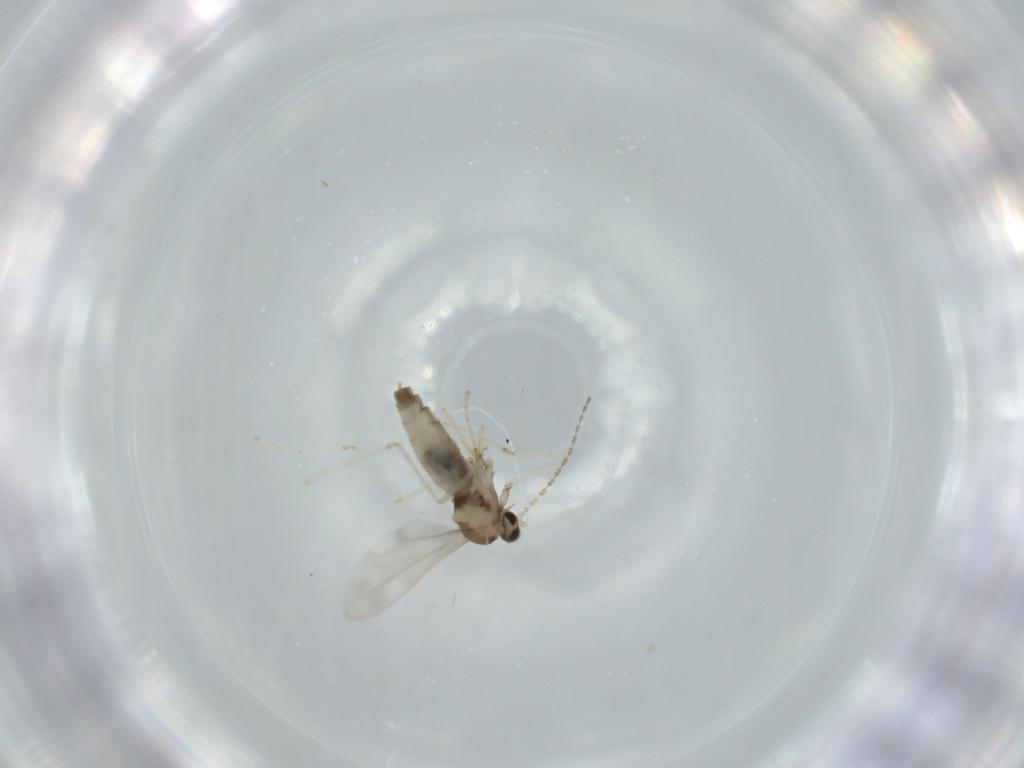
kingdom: Animalia
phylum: Arthropoda
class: Insecta
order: Diptera
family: Cecidomyiidae
